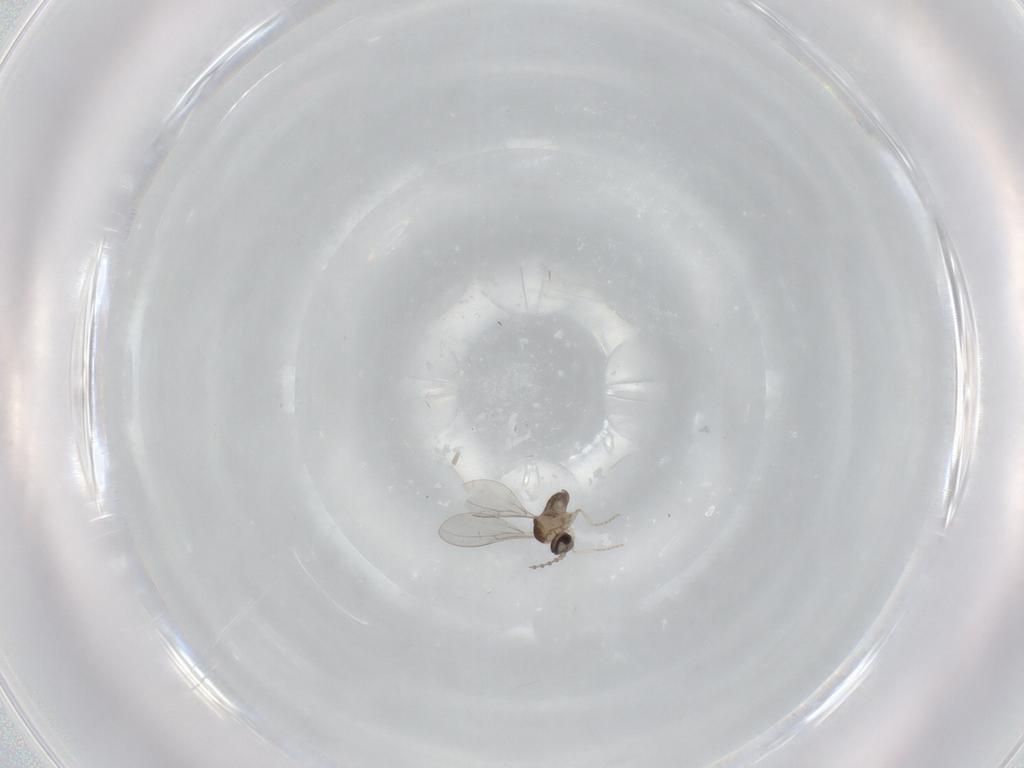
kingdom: Animalia
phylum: Arthropoda
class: Insecta
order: Diptera
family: Cecidomyiidae
